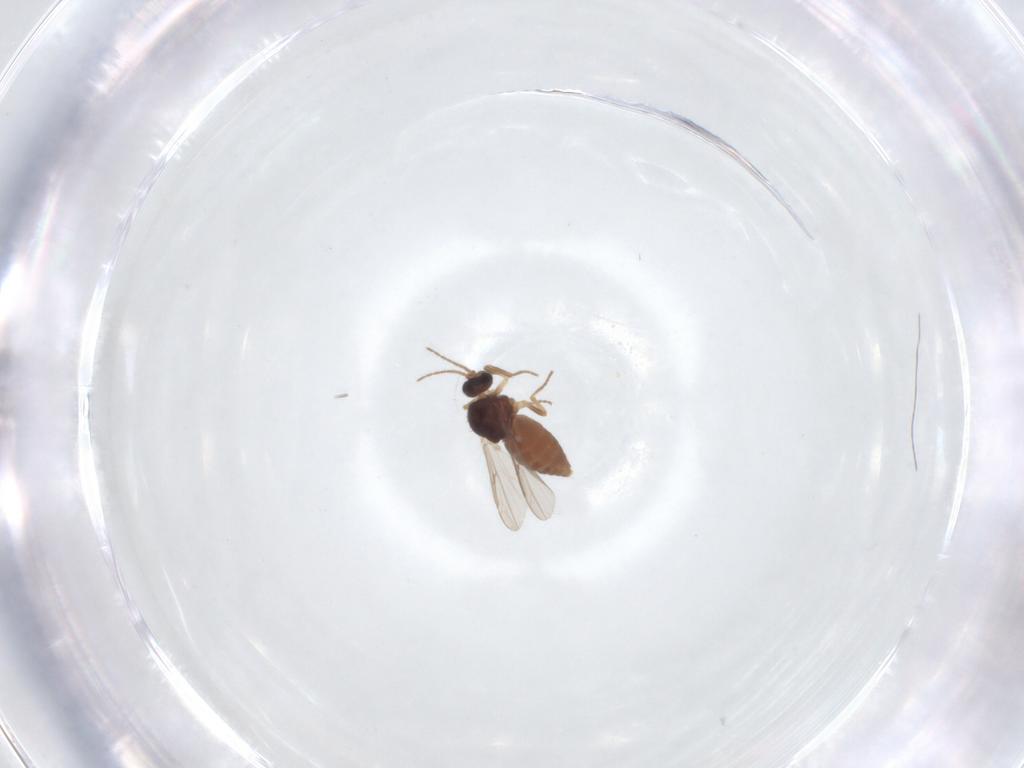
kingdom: Animalia
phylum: Arthropoda
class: Insecta
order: Diptera
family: Ceratopogonidae
